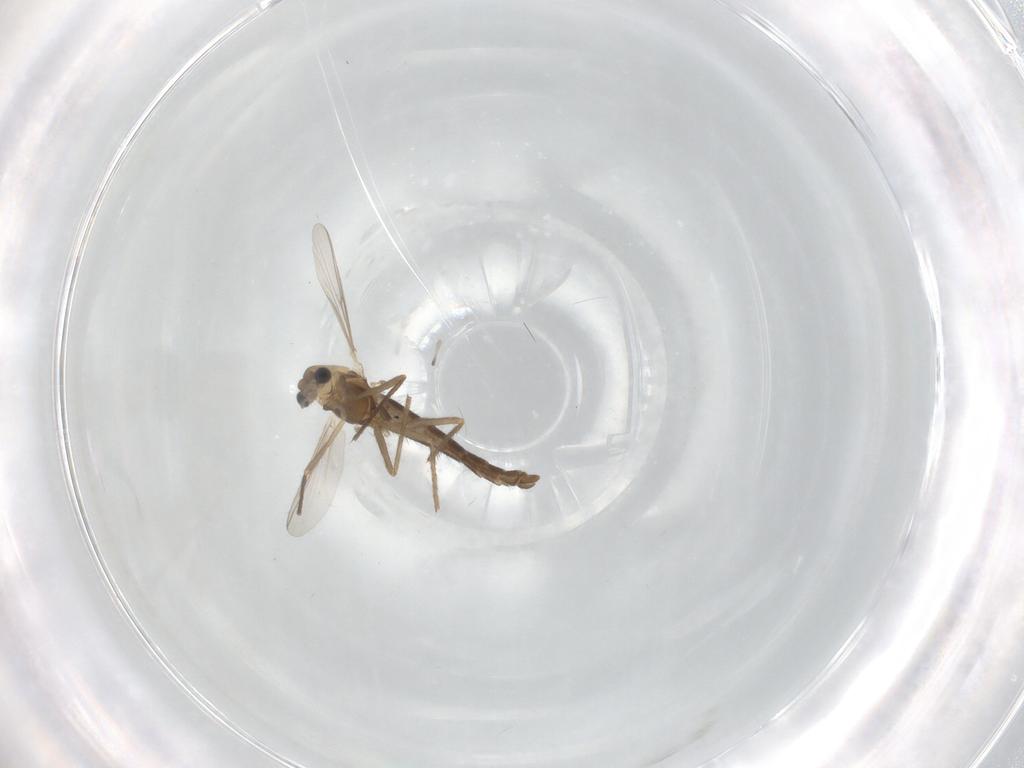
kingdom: Animalia
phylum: Arthropoda
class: Insecta
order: Diptera
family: Chironomidae
